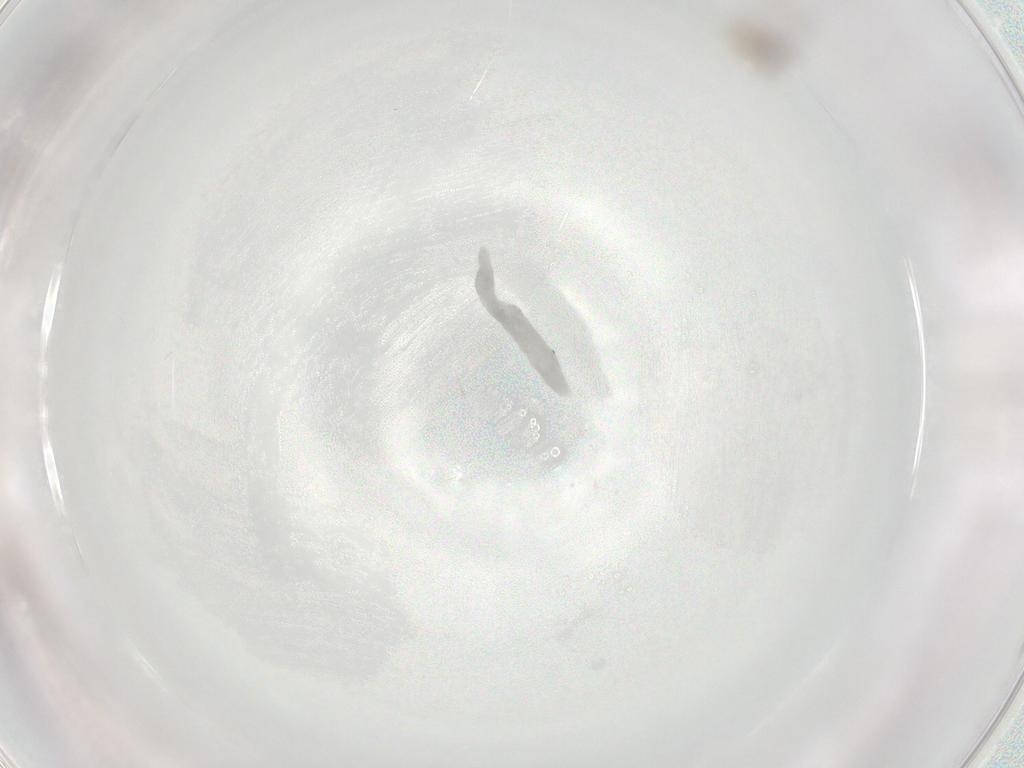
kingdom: Animalia
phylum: Arthropoda
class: Insecta
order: Hymenoptera
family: Trichogrammatidae
